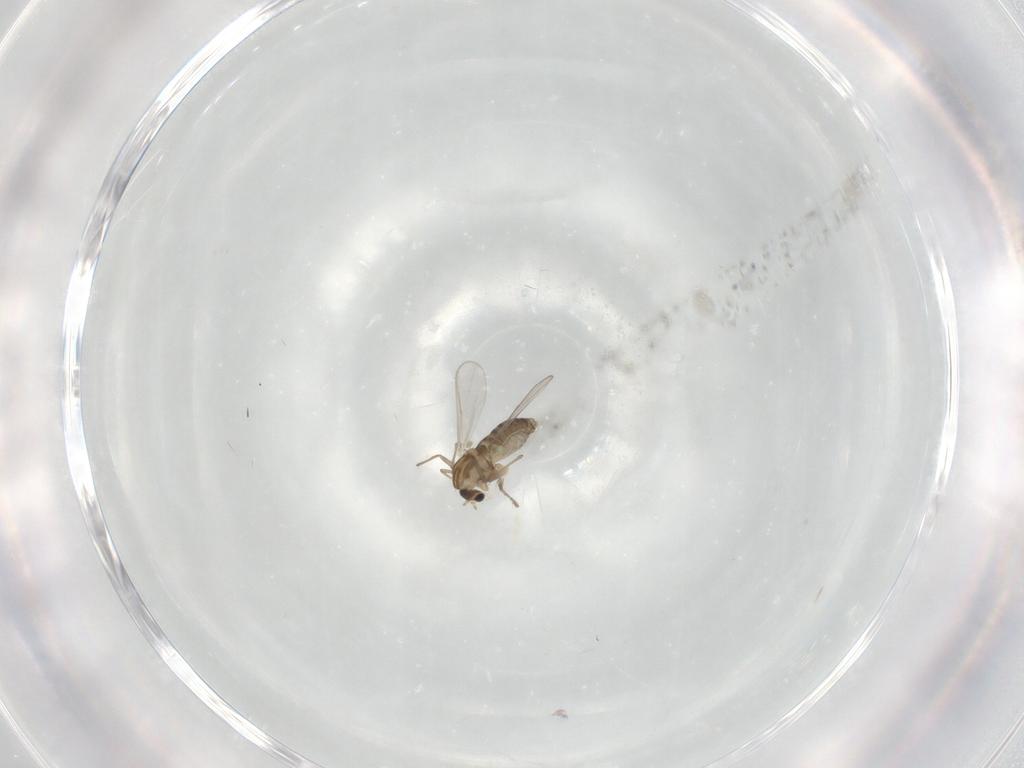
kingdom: Animalia
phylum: Arthropoda
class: Insecta
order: Diptera
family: Chironomidae
